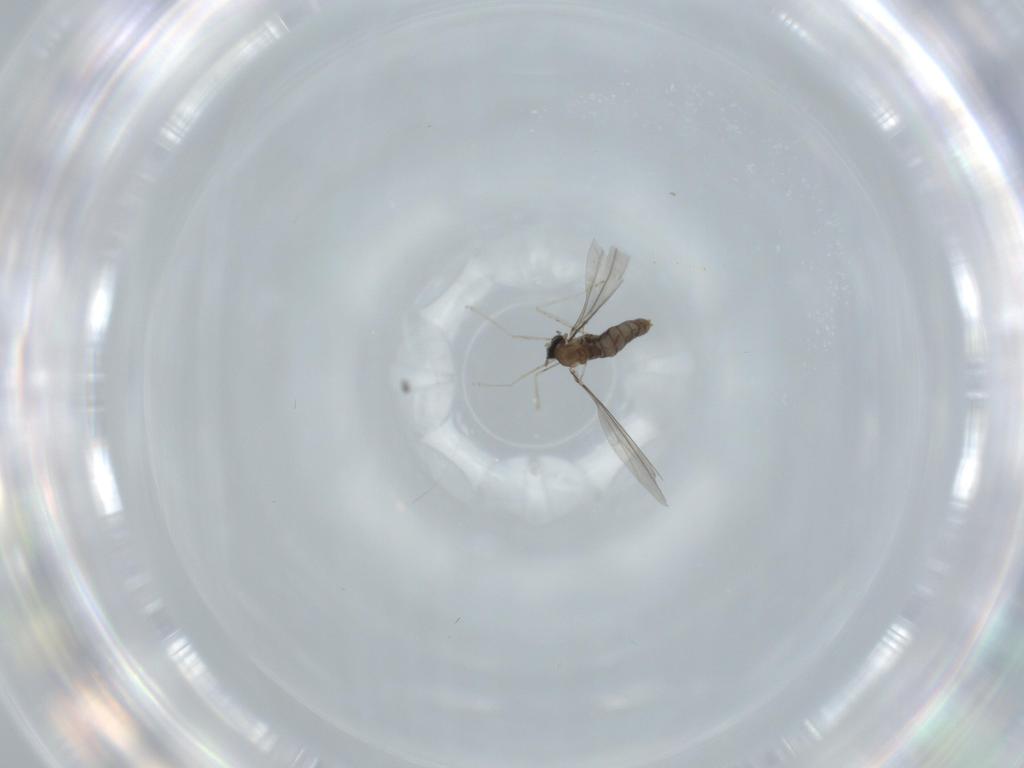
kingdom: Animalia
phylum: Arthropoda
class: Insecta
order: Diptera
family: Cecidomyiidae
